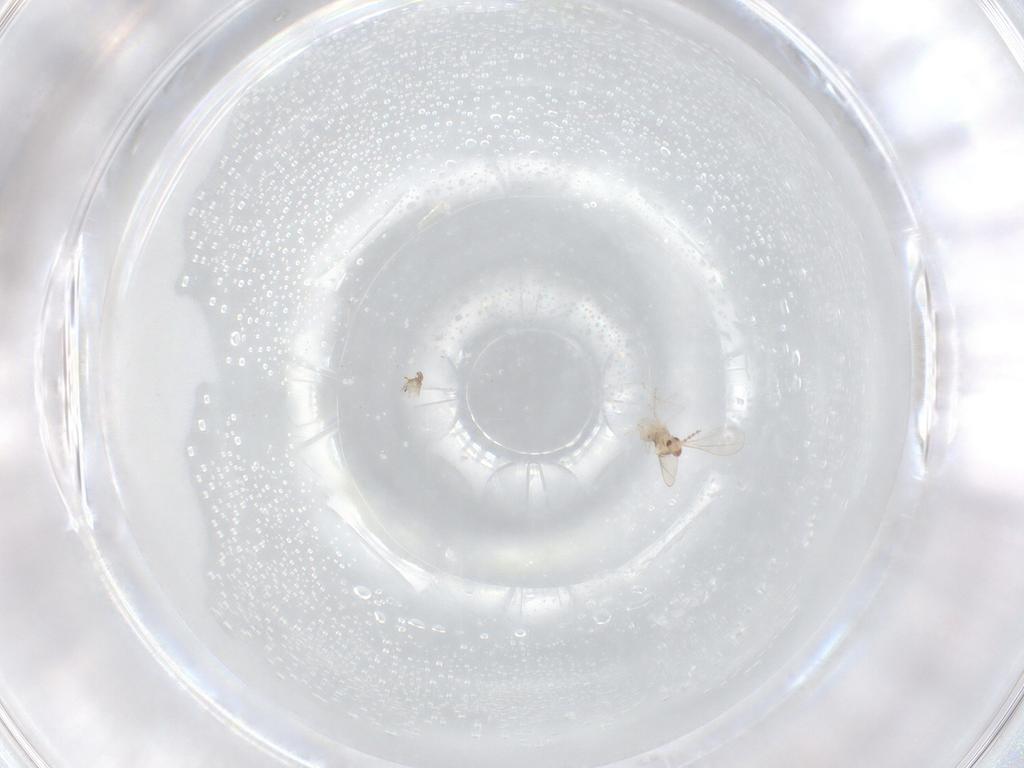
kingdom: Animalia
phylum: Arthropoda
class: Insecta
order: Diptera
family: Cecidomyiidae
